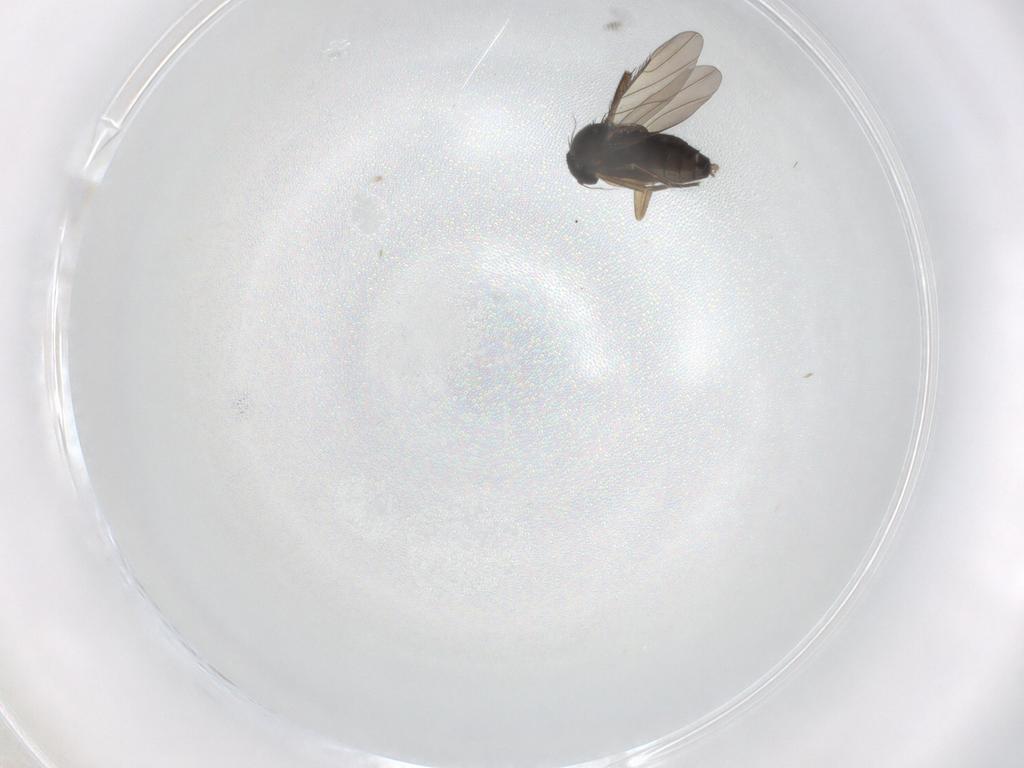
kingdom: Animalia
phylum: Arthropoda
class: Insecta
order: Diptera
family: Phoridae
